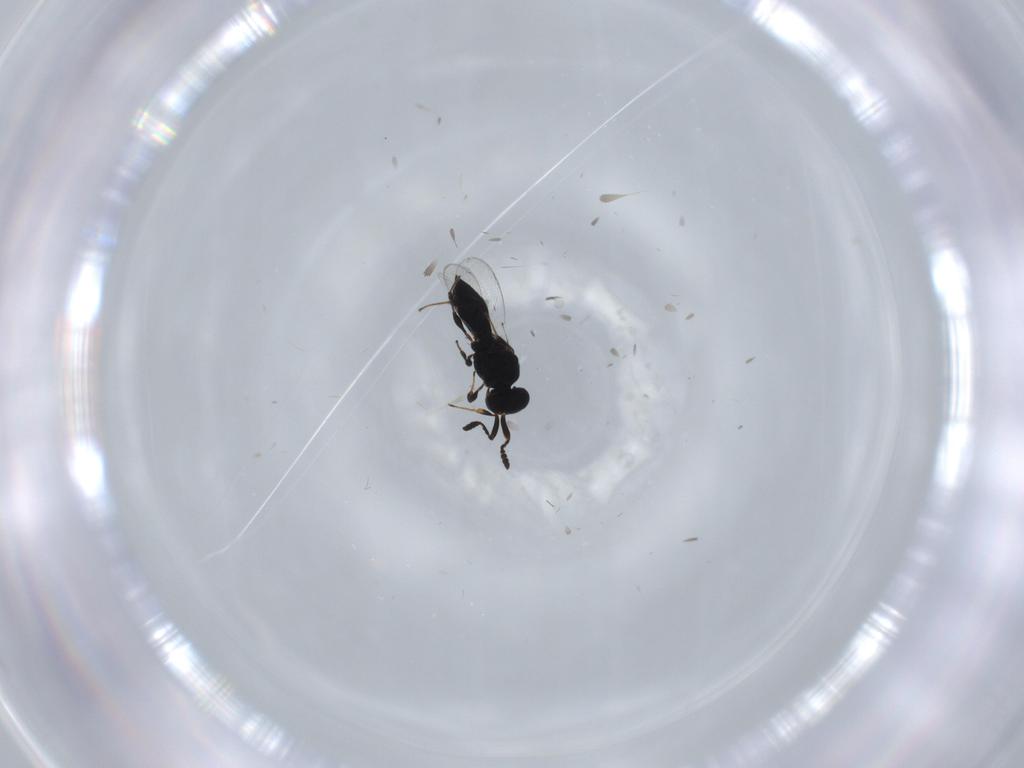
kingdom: Animalia
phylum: Arthropoda
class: Insecta
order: Hymenoptera
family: Platygastridae
